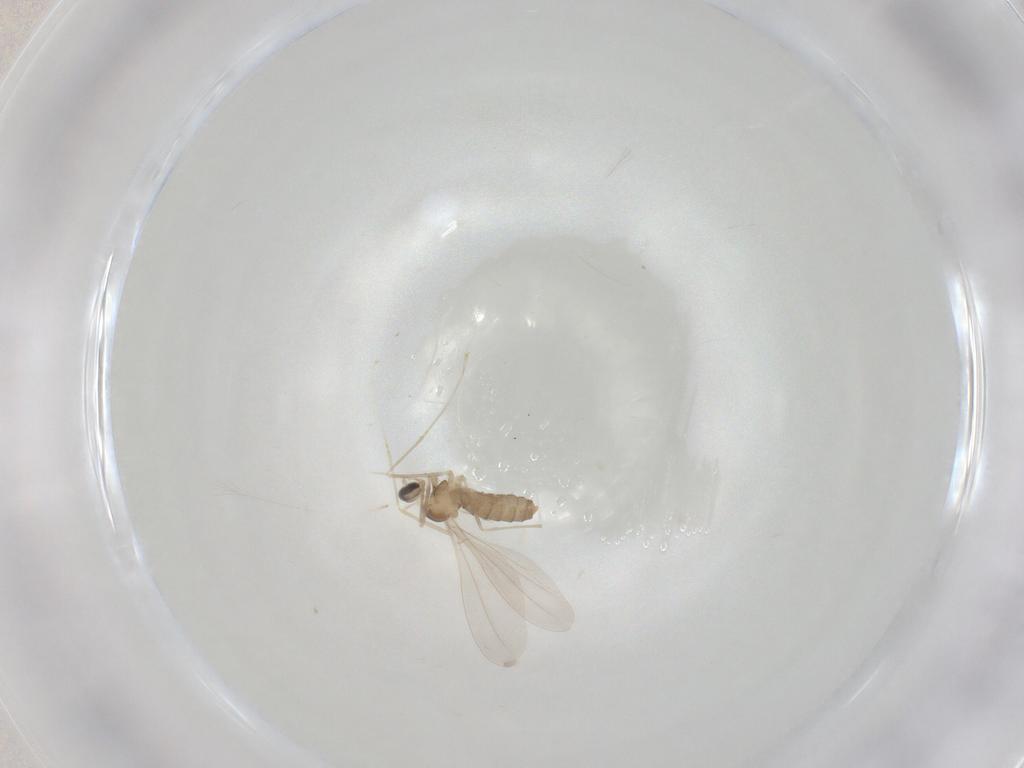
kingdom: Animalia
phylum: Arthropoda
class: Insecta
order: Diptera
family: Cecidomyiidae
